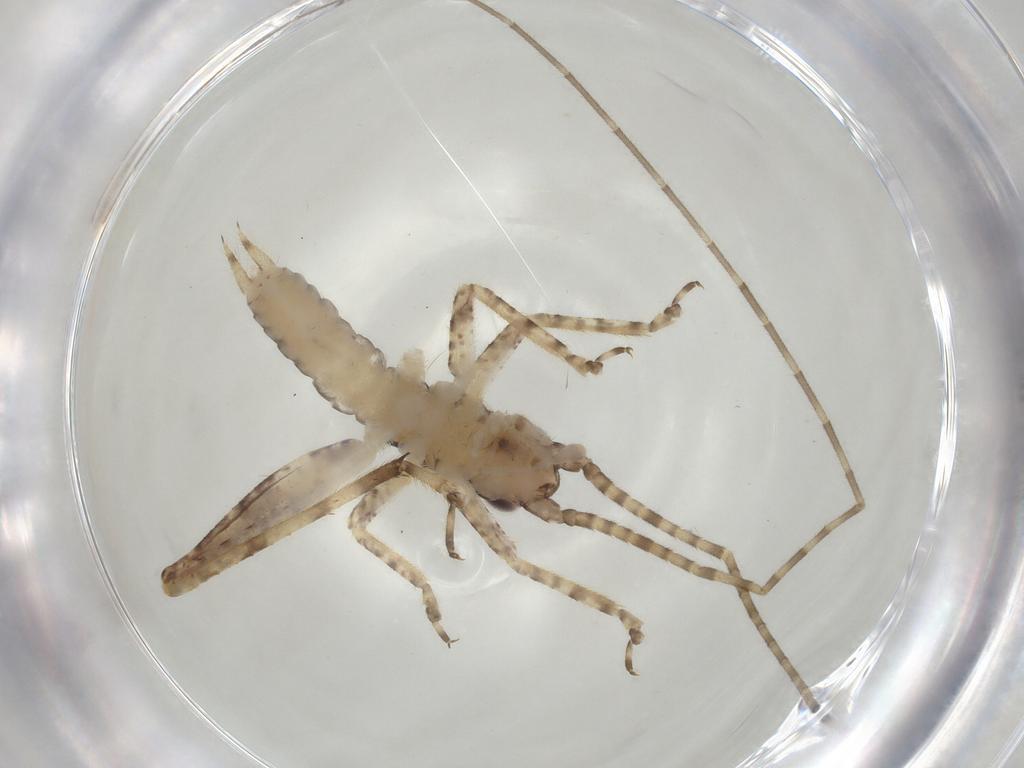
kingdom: Animalia
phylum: Arthropoda
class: Insecta
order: Orthoptera
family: Gryllidae
